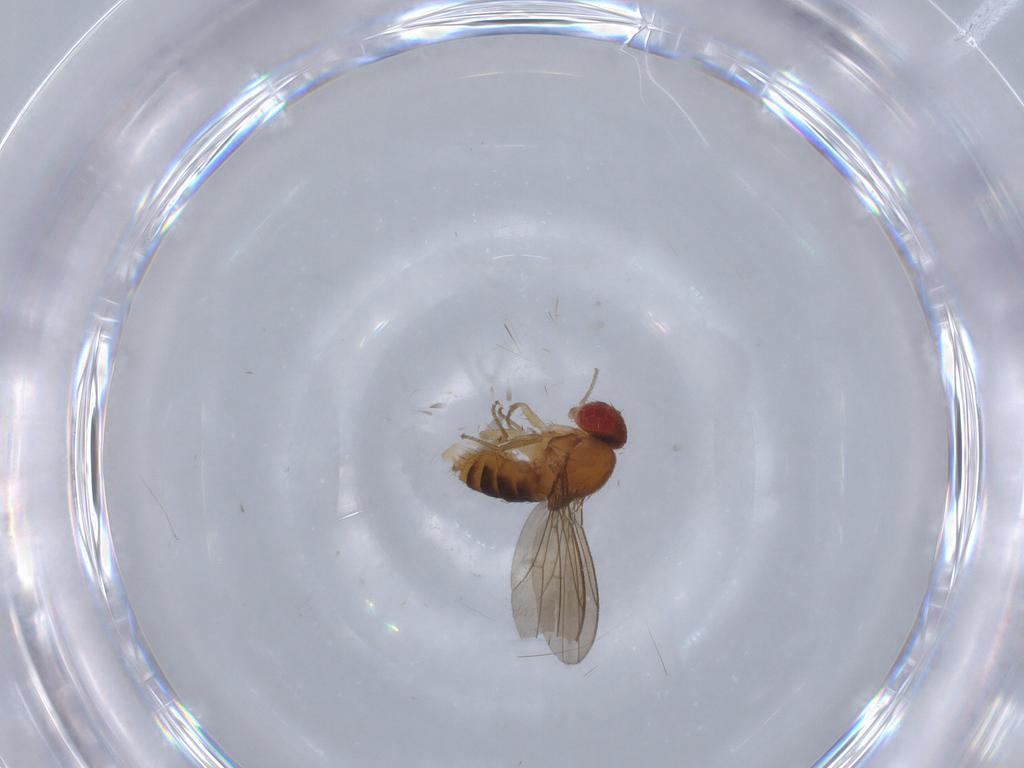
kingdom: Animalia
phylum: Arthropoda
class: Insecta
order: Diptera
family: Drosophilidae
